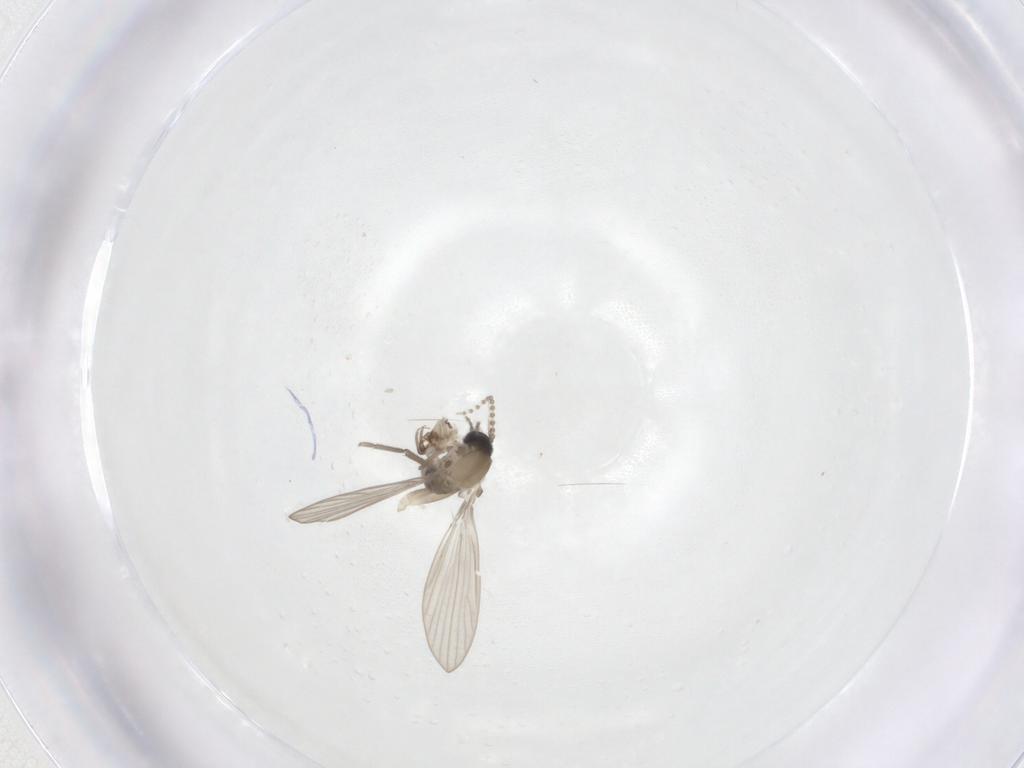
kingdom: Animalia
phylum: Arthropoda
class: Insecta
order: Diptera
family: Psychodidae
